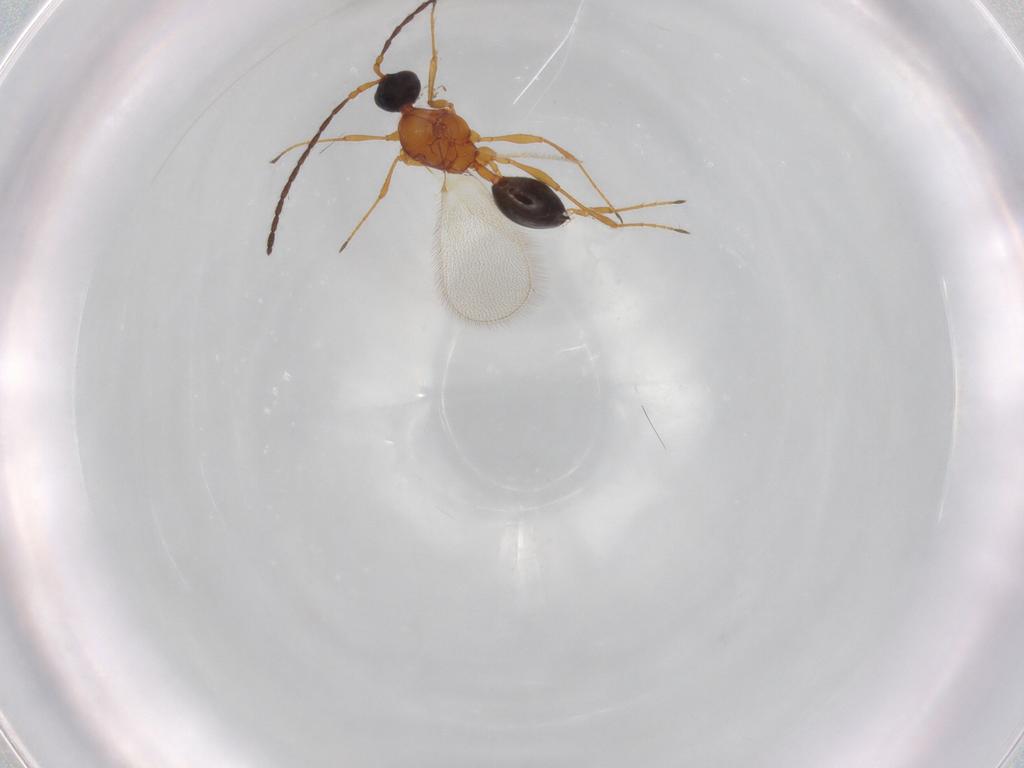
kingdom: Animalia
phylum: Arthropoda
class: Insecta
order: Hymenoptera
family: Diapriidae
